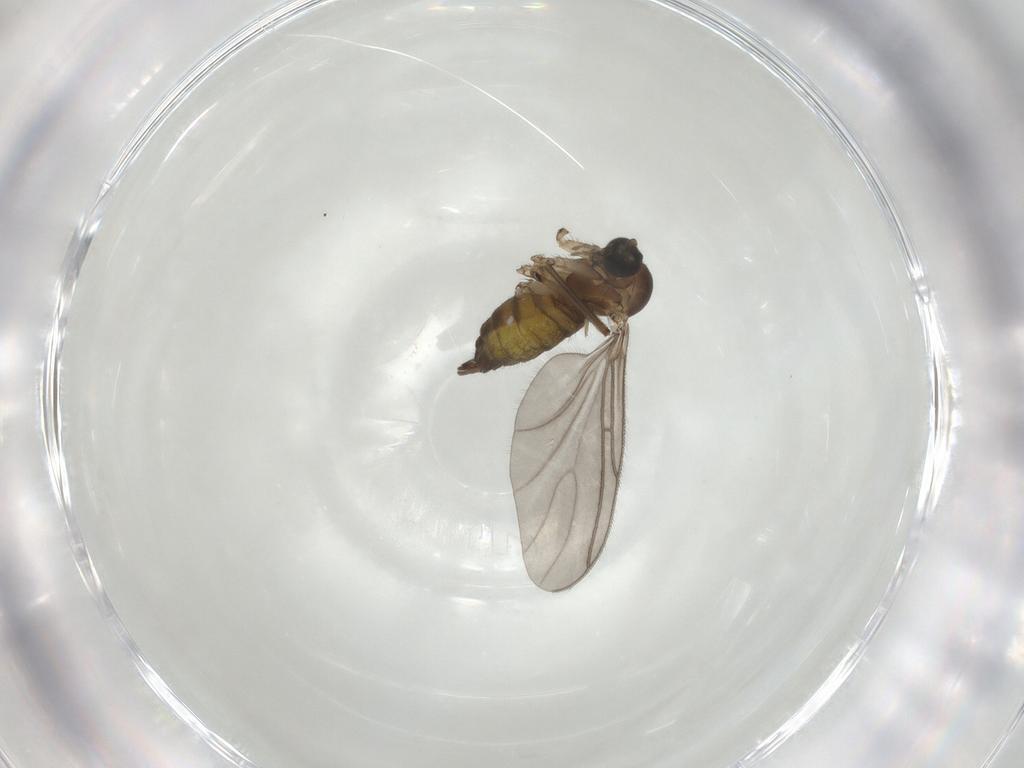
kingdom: Animalia
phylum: Arthropoda
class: Insecta
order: Diptera
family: Sciaridae
